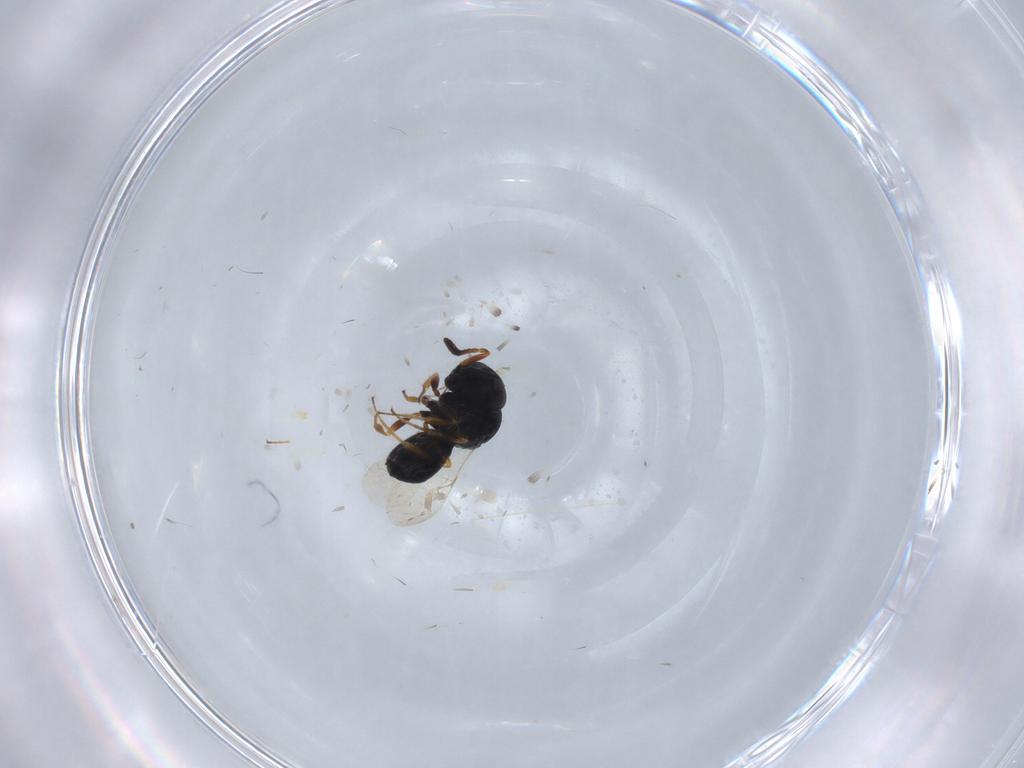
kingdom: Animalia
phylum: Arthropoda
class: Insecta
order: Hymenoptera
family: Scelionidae
